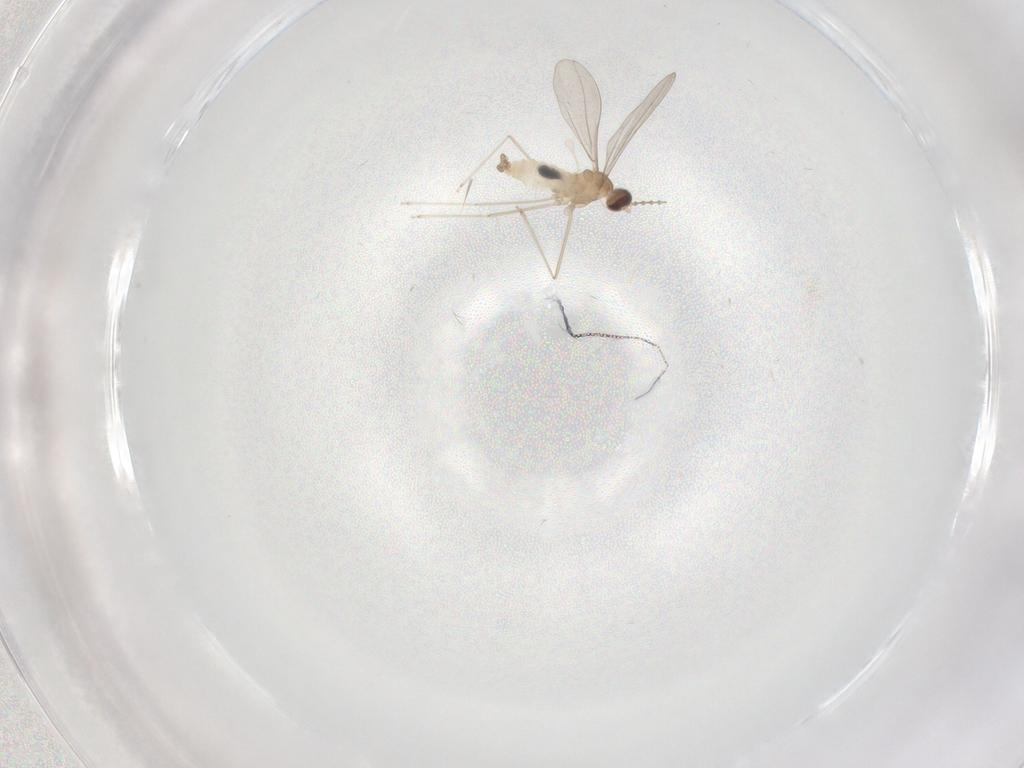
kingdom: Animalia
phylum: Arthropoda
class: Insecta
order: Diptera
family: Cecidomyiidae
